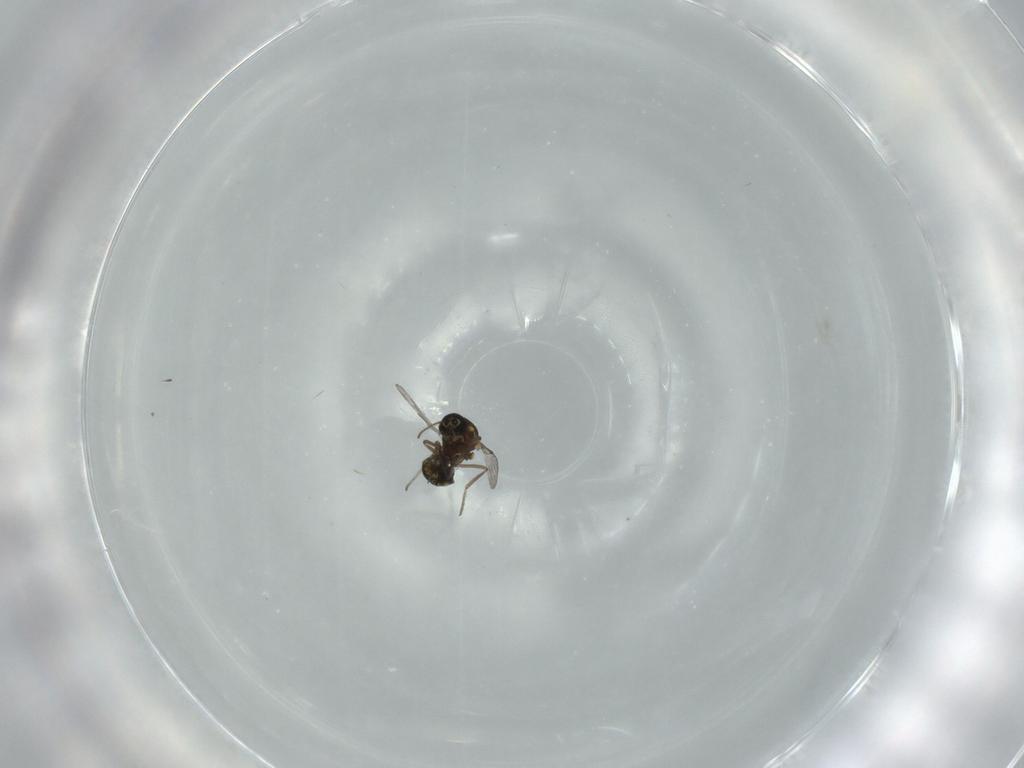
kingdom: Animalia
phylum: Arthropoda
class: Insecta
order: Diptera
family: Ceratopogonidae
